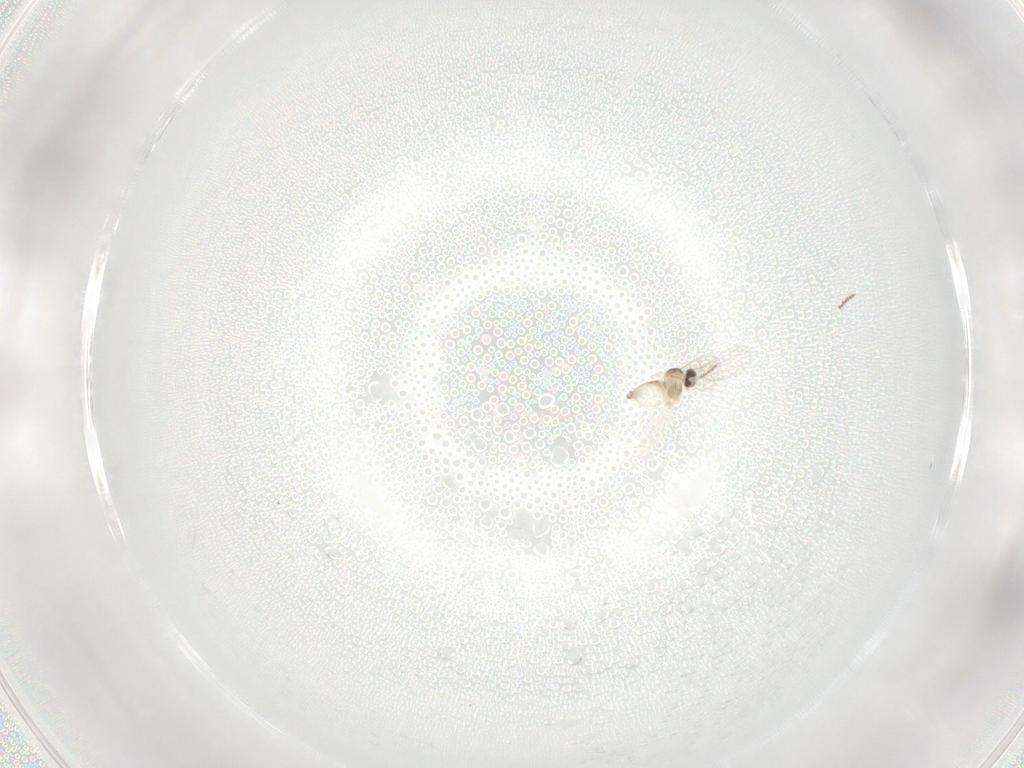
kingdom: Animalia
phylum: Arthropoda
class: Insecta
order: Diptera
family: Cecidomyiidae
